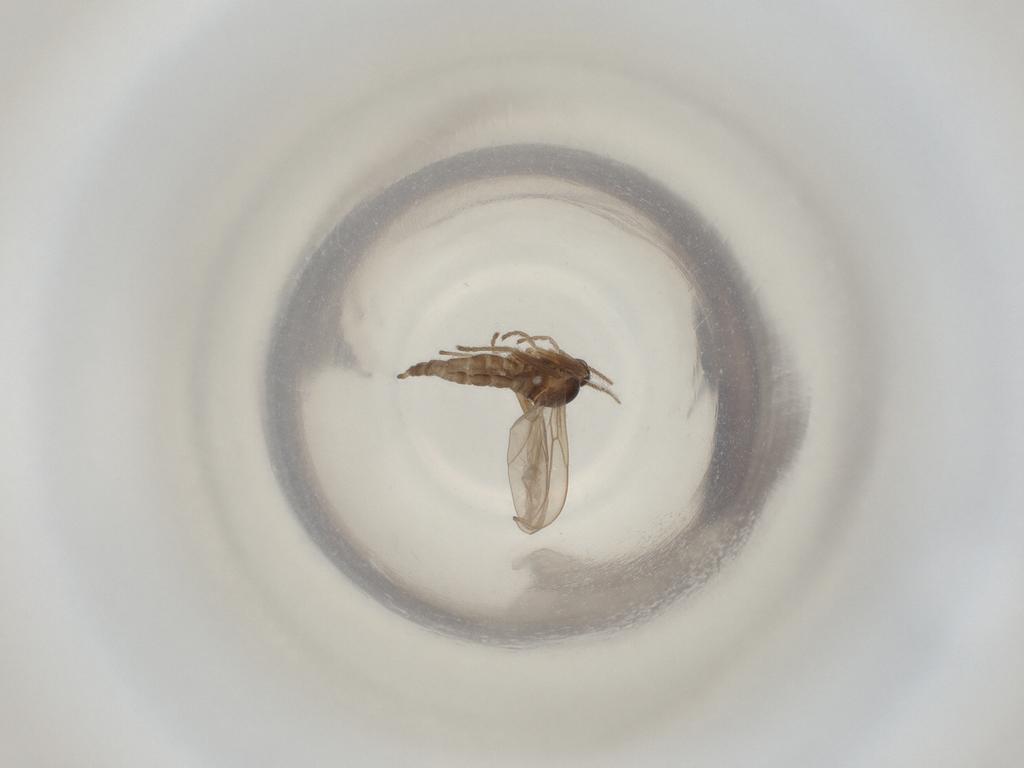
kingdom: Animalia
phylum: Arthropoda
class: Insecta
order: Diptera
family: Cecidomyiidae
